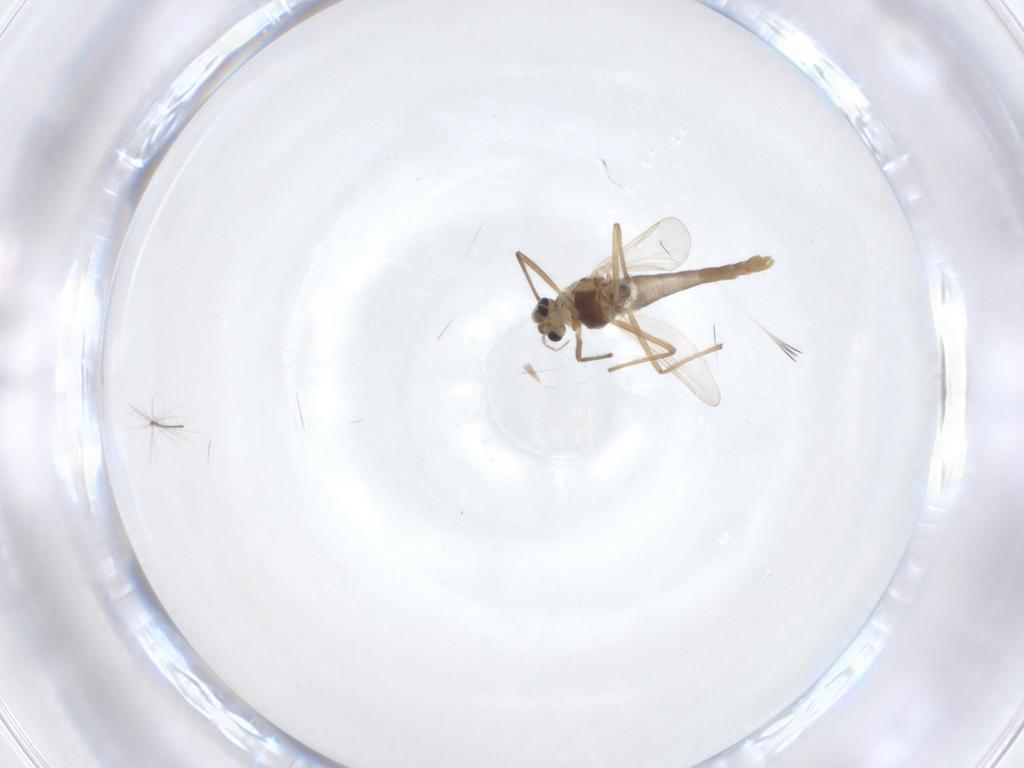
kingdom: Animalia
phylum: Arthropoda
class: Insecta
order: Diptera
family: Chironomidae
